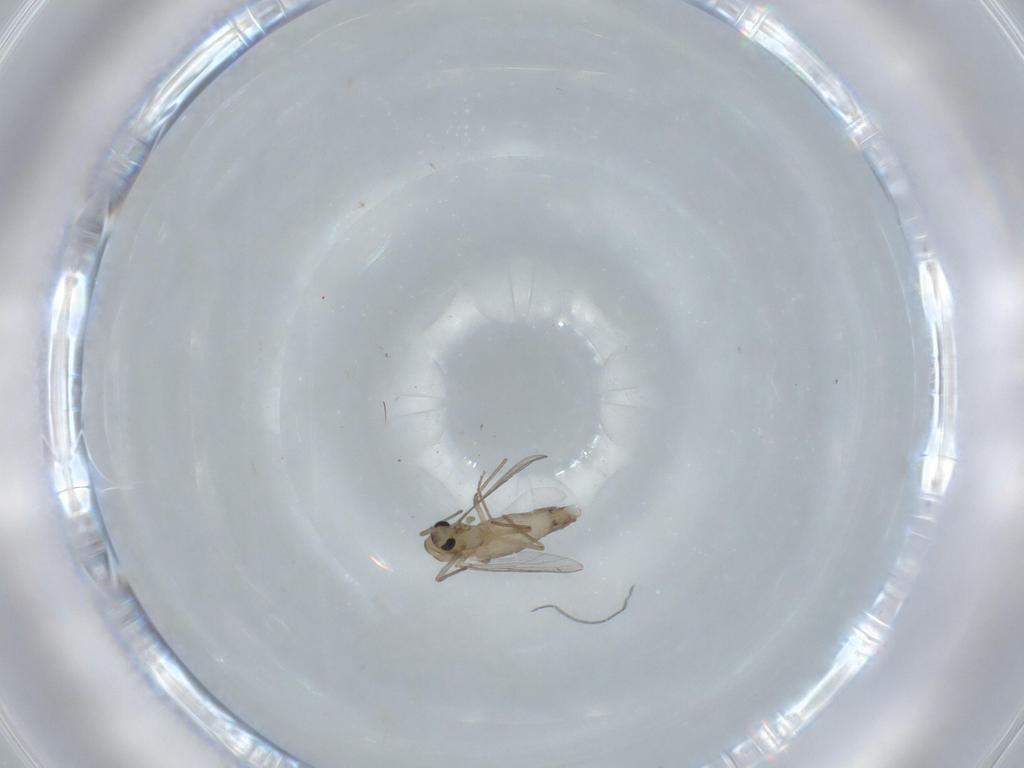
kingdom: Animalia
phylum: Arthropoda
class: Insecta
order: Diptera
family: Chironomidae
